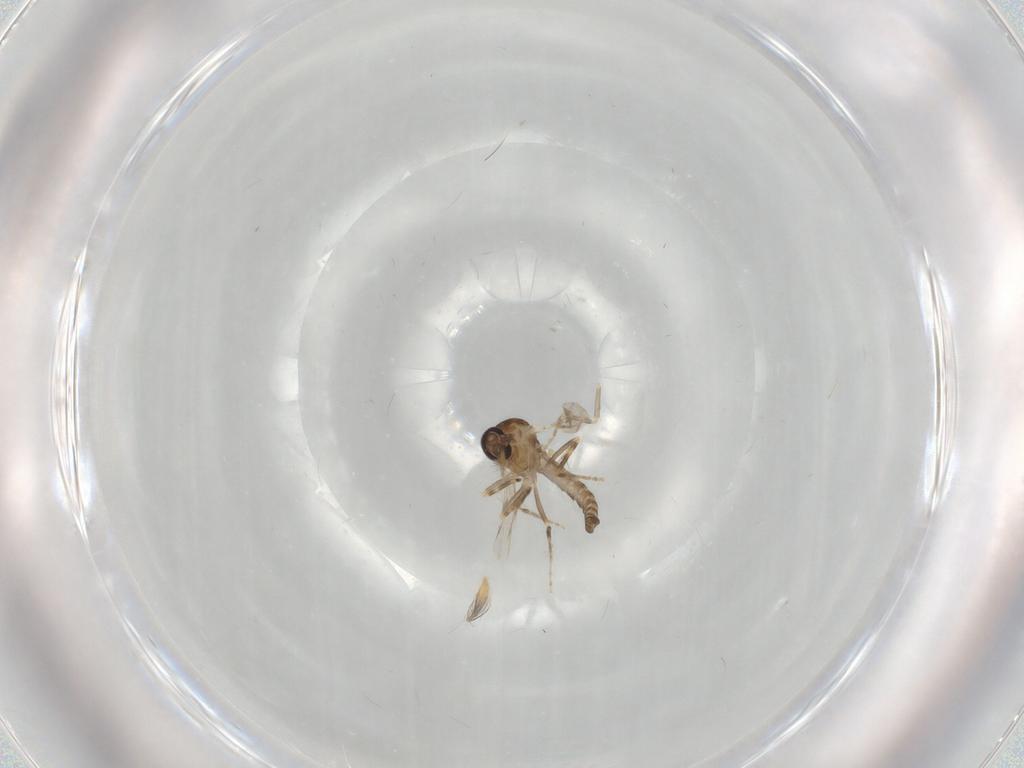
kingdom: Animalia
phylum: Arthropoda
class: Insecta
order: Diptera
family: Ceratopogonidae
